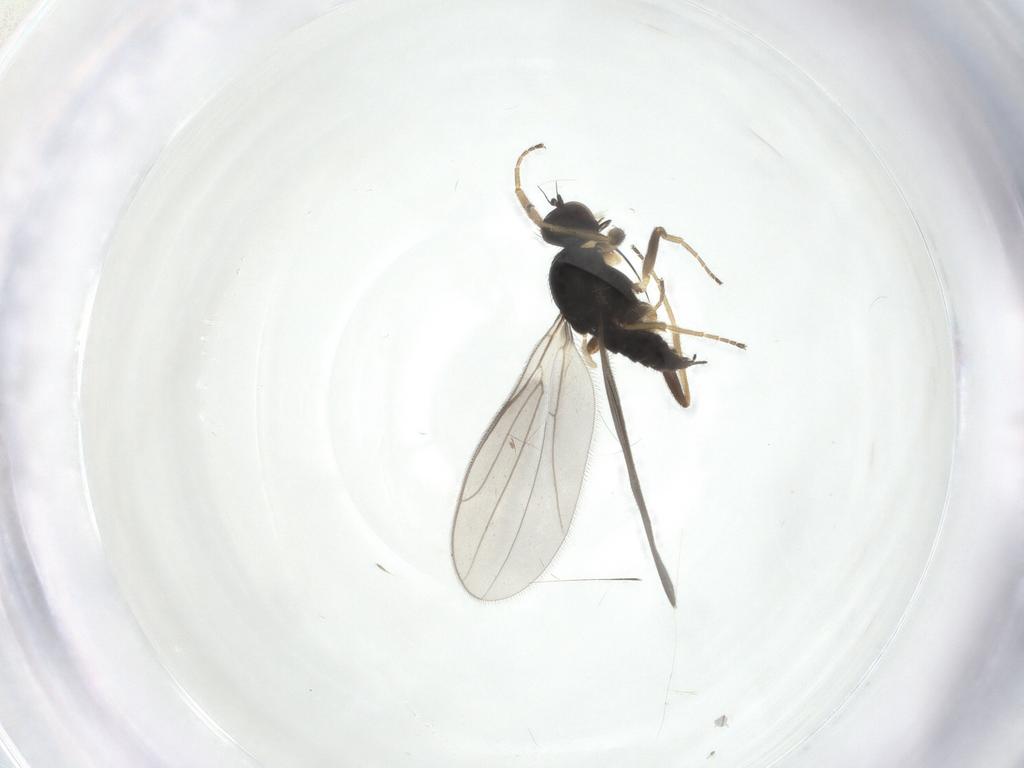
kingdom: Animalia
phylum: Arthropoda
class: Insecta
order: Diptera
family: Hybotidae
